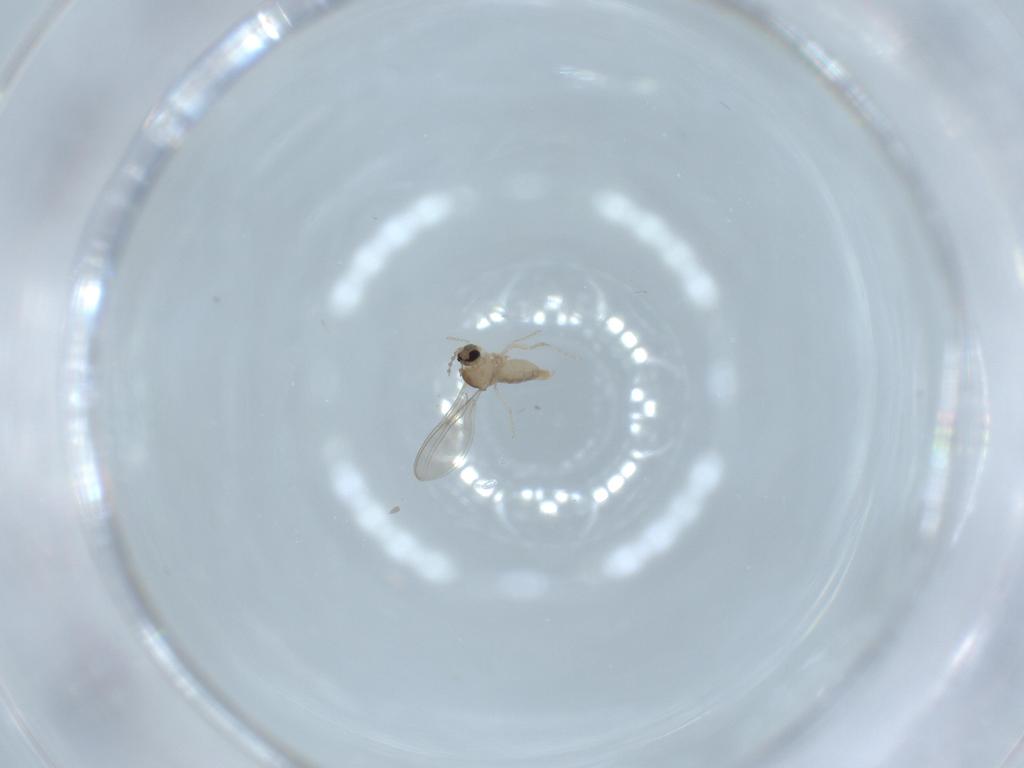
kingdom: Animalia
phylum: Arthropoda
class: Insecta
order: Diptera
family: Cecidomyiidae
